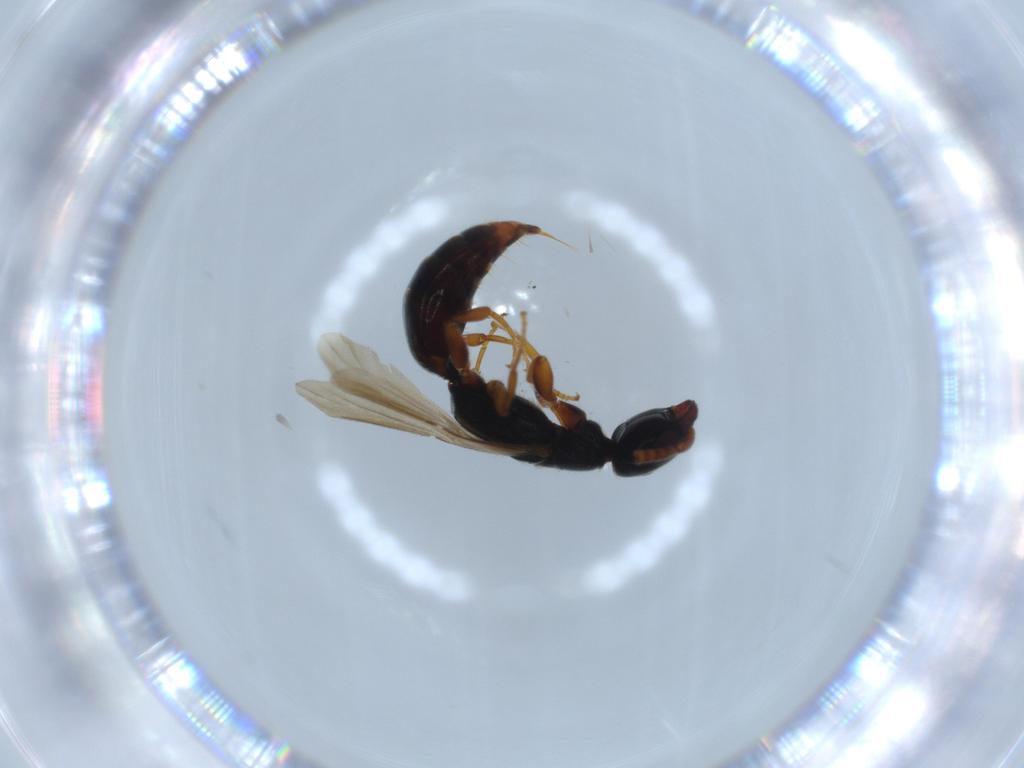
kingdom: Animalia
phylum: Arthropoda
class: Insecta
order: Hymenoptera
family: Bethylidae
